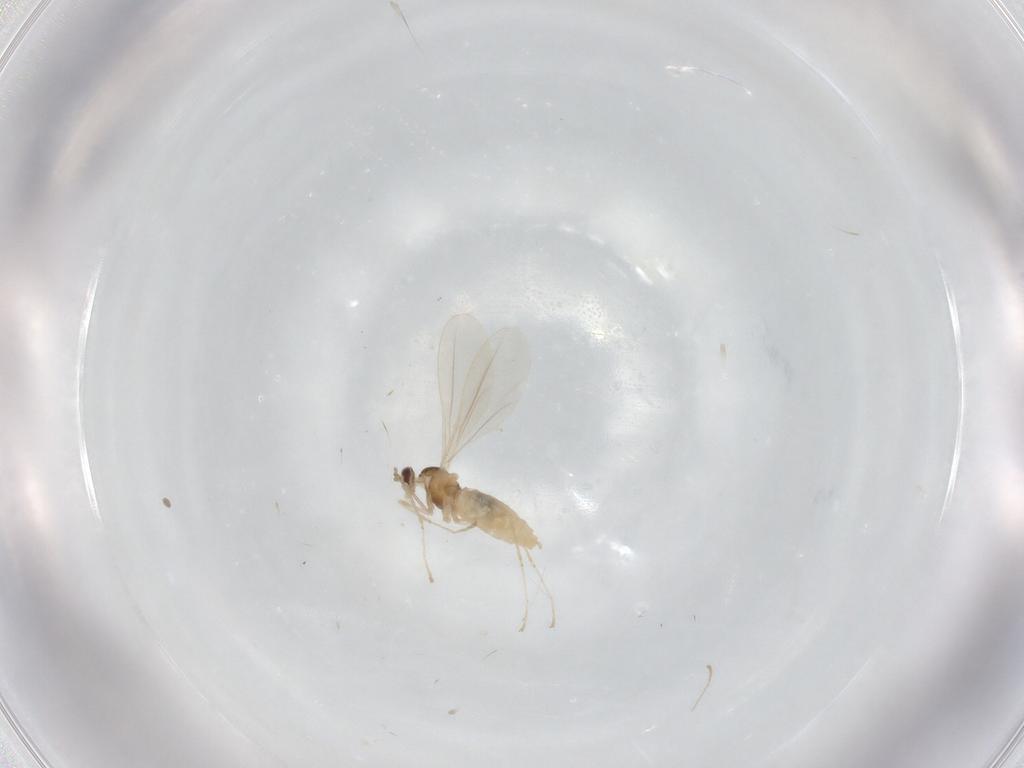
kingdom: Animalia
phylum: Arthropoda
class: Insecta
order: Diptera
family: Cecidomyiidae
